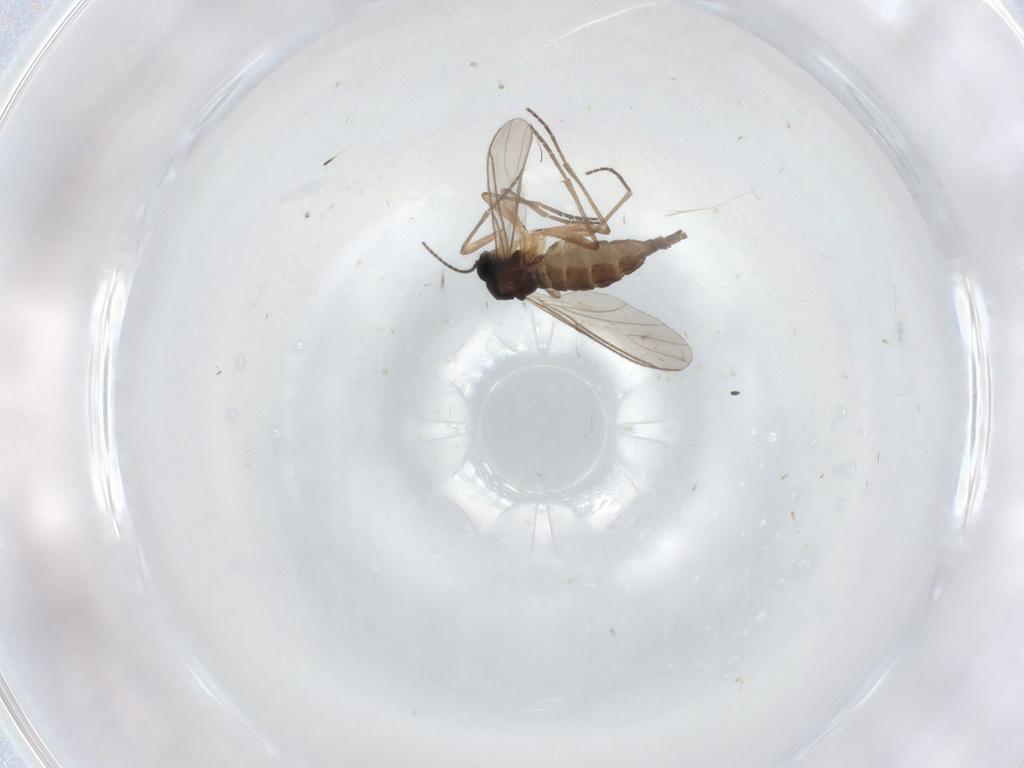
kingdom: Animalia
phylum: Arthropoda
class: Insecta
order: Diptera
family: Sciaridae
